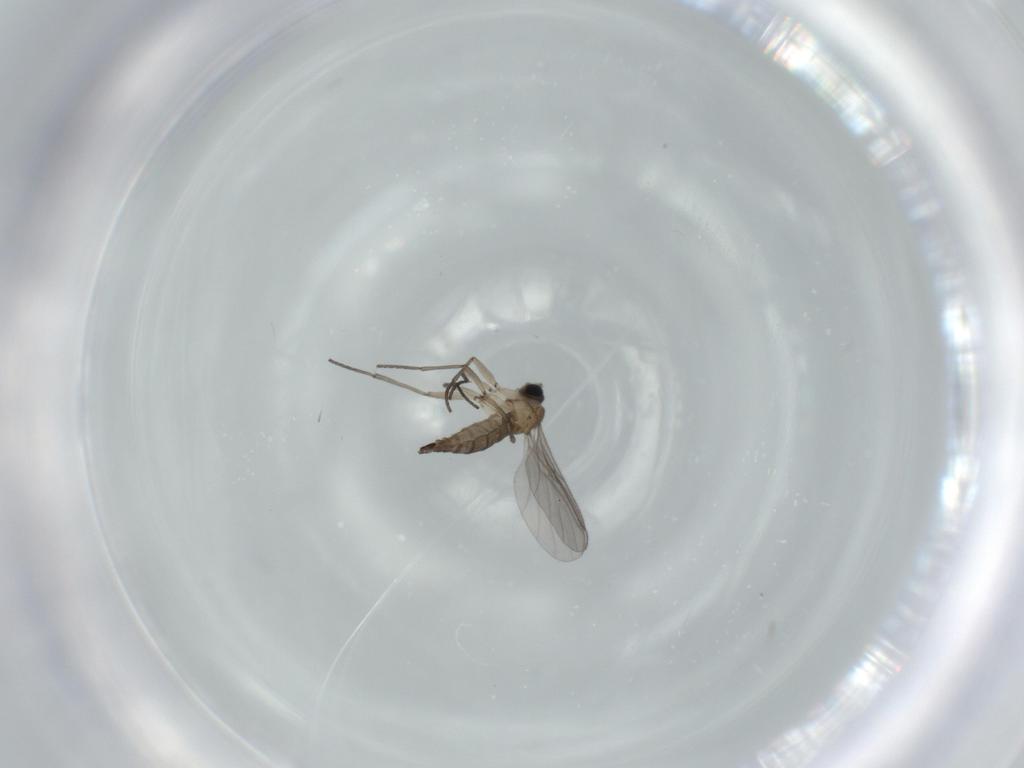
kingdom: Animalia
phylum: Arthropoda
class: Insecta
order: Diptera
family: Sciaridae
